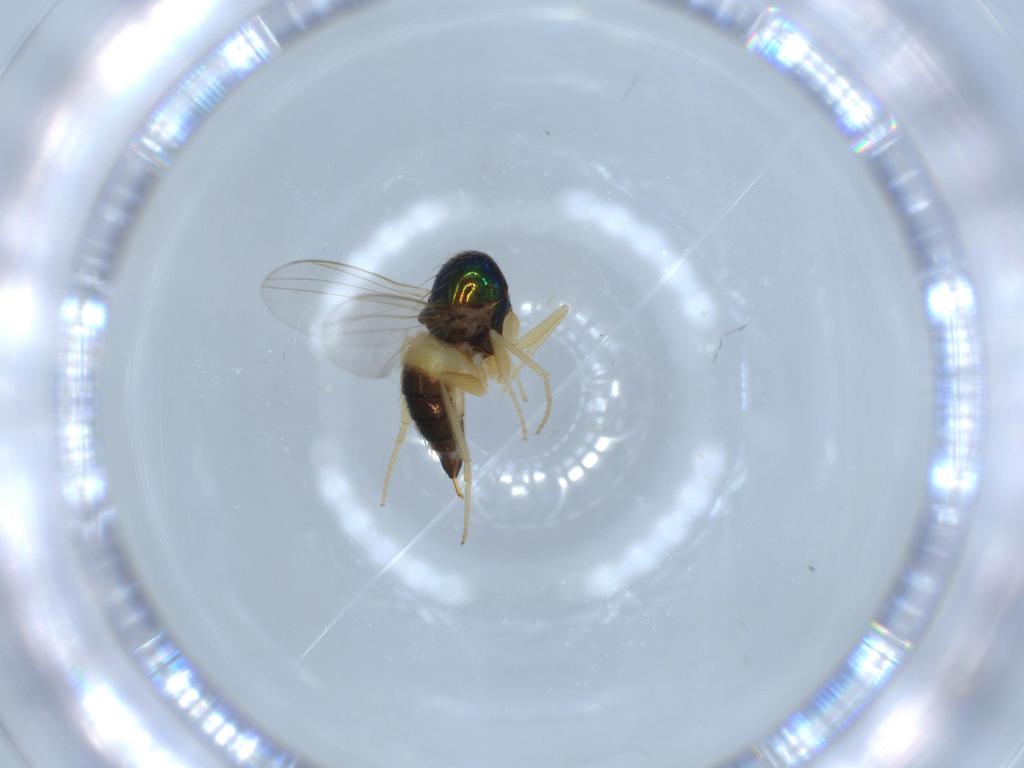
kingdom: Animalia
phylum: Arthropoda
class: Insecta
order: Diptera
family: Dolichopodidae
